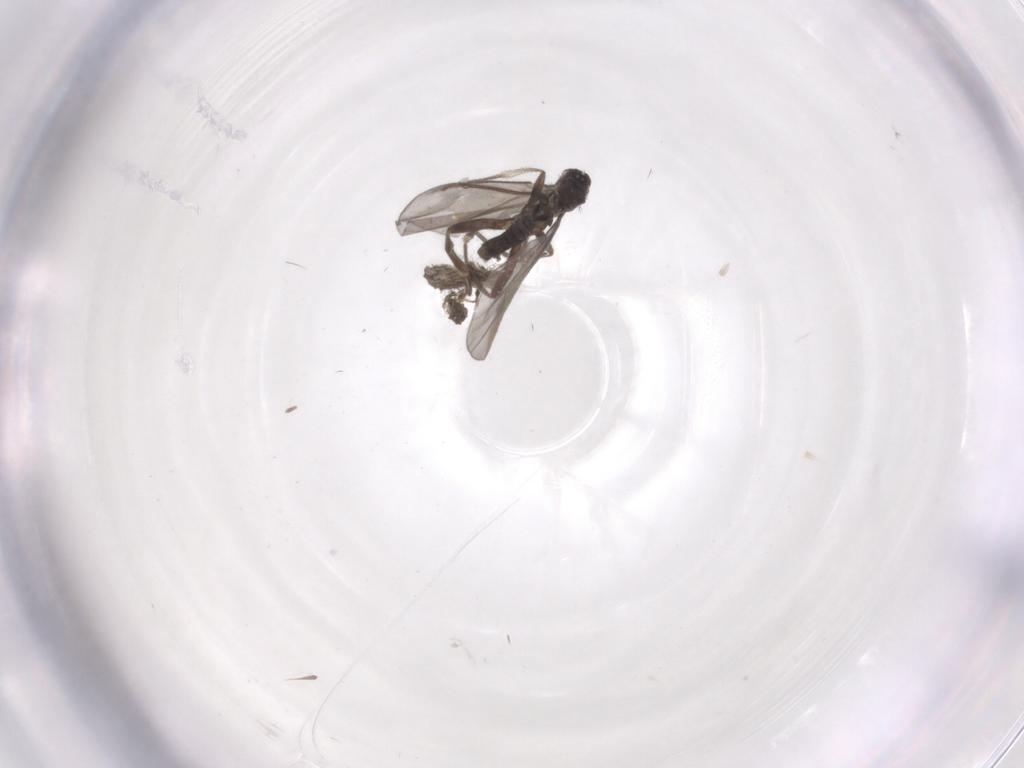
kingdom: Animalia
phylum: Arthropoda
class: Insecta
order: Diptera
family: Phoridae
